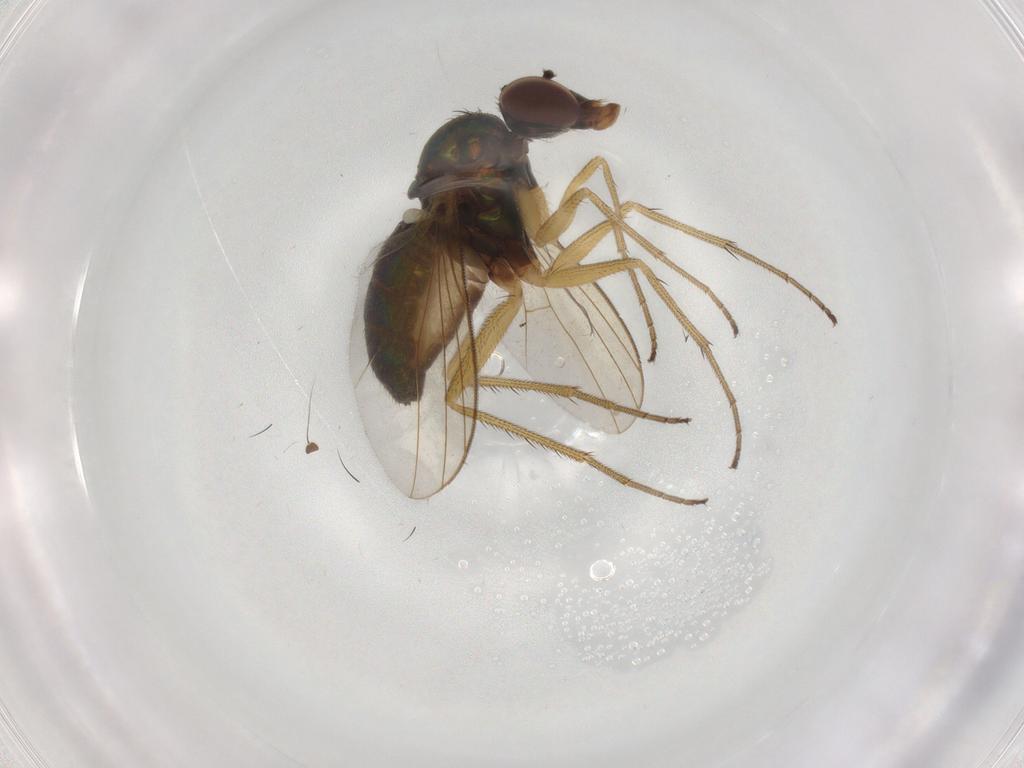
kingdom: Animalia
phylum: Arthropoda
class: Insecta
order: Diptera
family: Dolichopodidae
